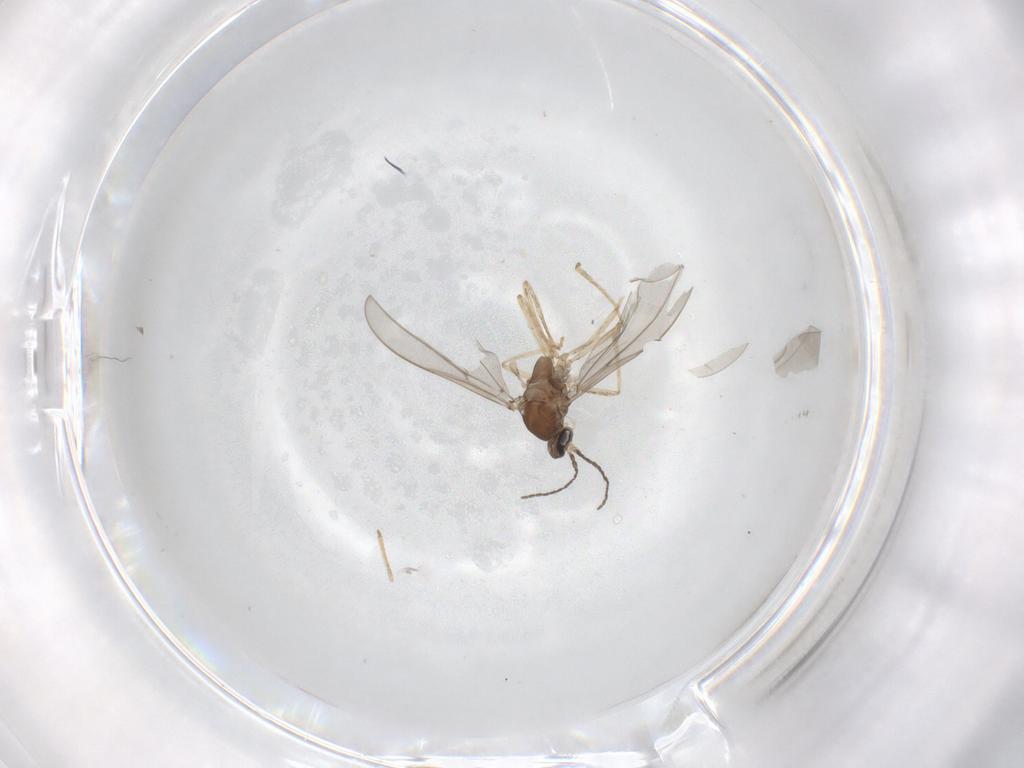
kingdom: Animalia
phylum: Arthropoda
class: Insecta
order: Diptera
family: Cecidomyiidae
